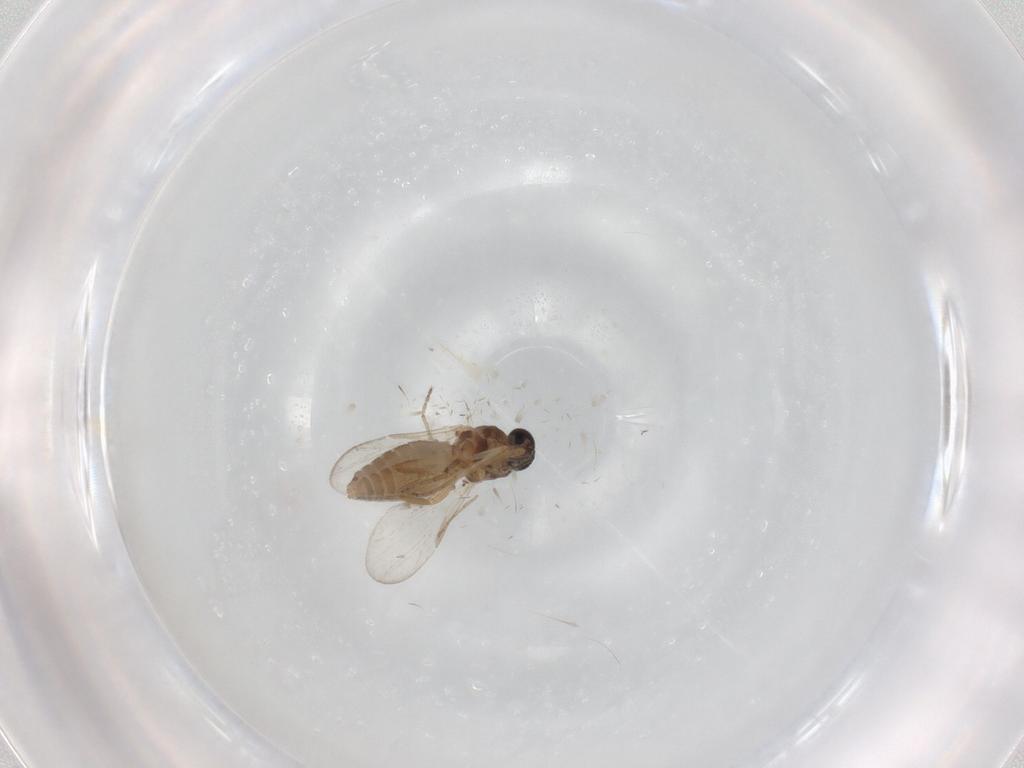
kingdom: Animalia
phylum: Arthropoda
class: Insecta
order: Diptera
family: Ceratopogonidae
